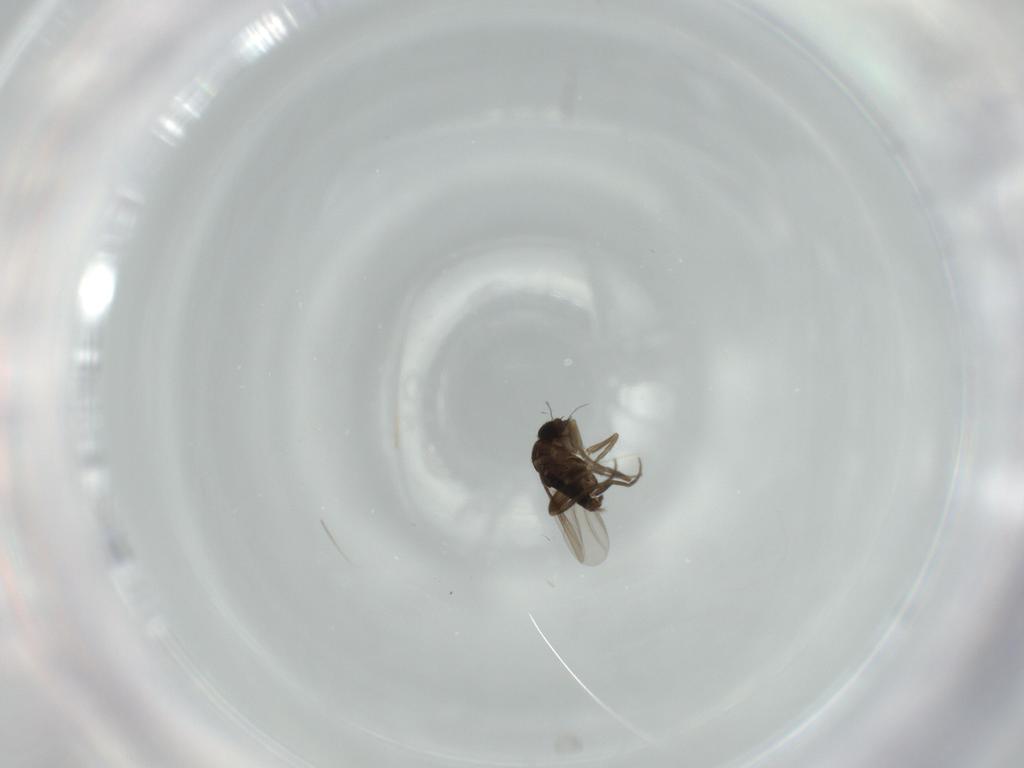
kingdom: Animalia
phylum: Arthropoda
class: Insecta
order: Diptera
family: Phoridae
